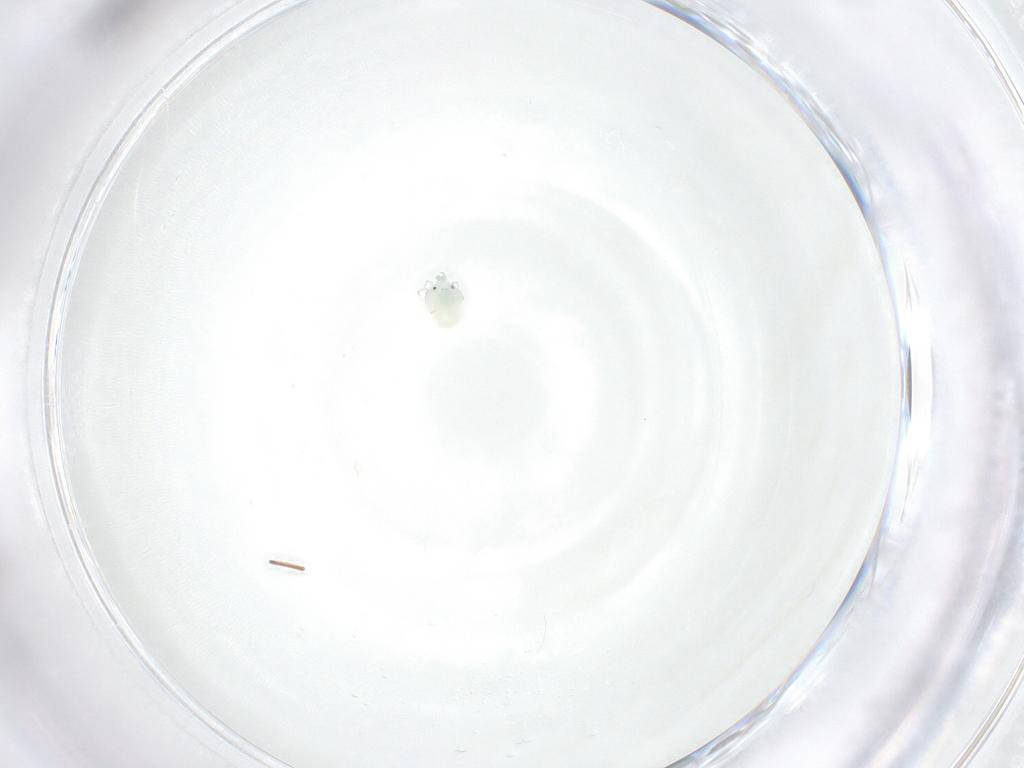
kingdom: Animalia
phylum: Arthropoda
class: Arachnida
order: Trombidiformes
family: Arrenuridae
